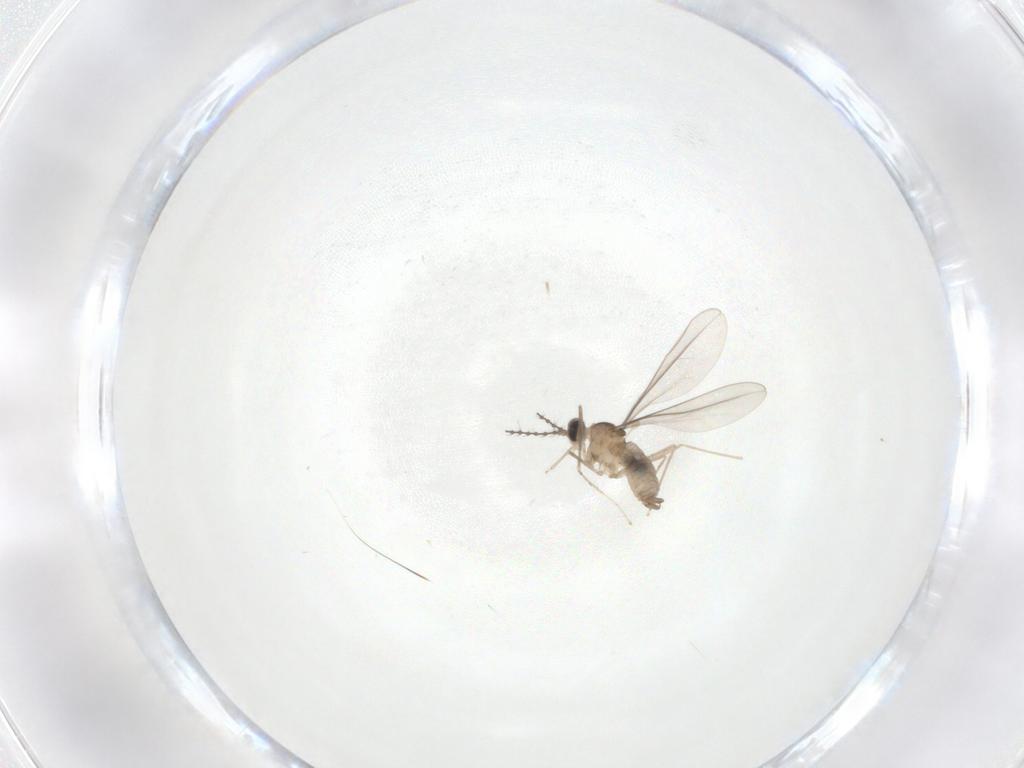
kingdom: Animalia
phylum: Arthropoda
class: Insecta
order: Diptera
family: Cecidomyiidae
